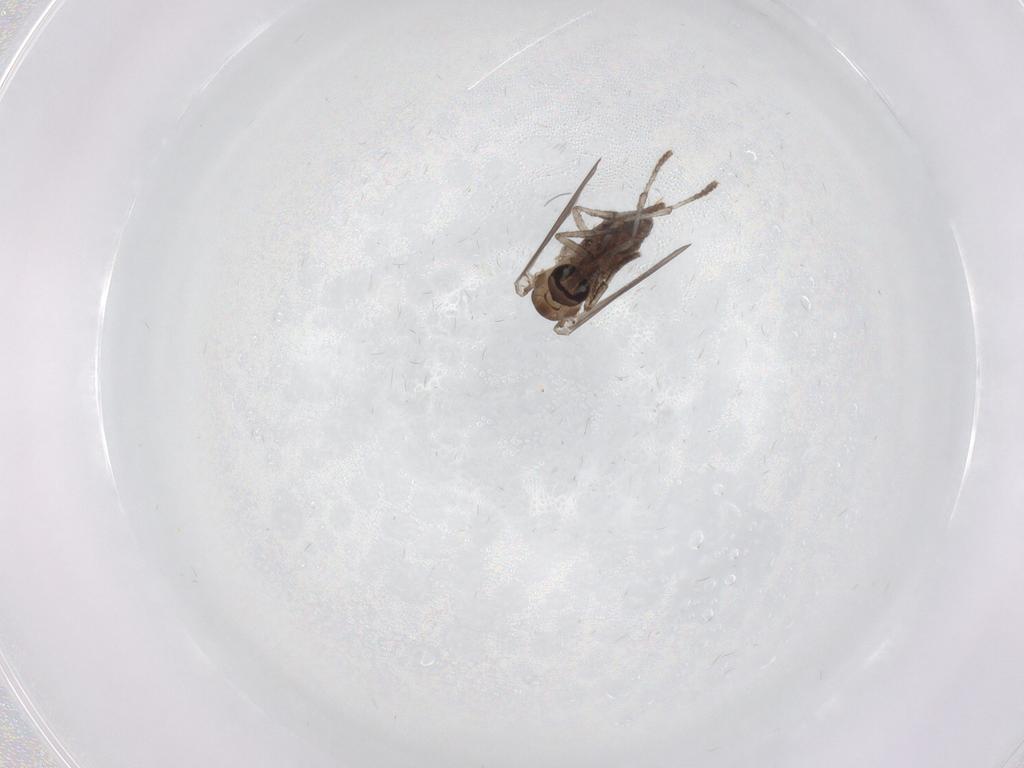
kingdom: Animalia
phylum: Arthropoda
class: Insecta
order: Diptera
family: Psychodidae
